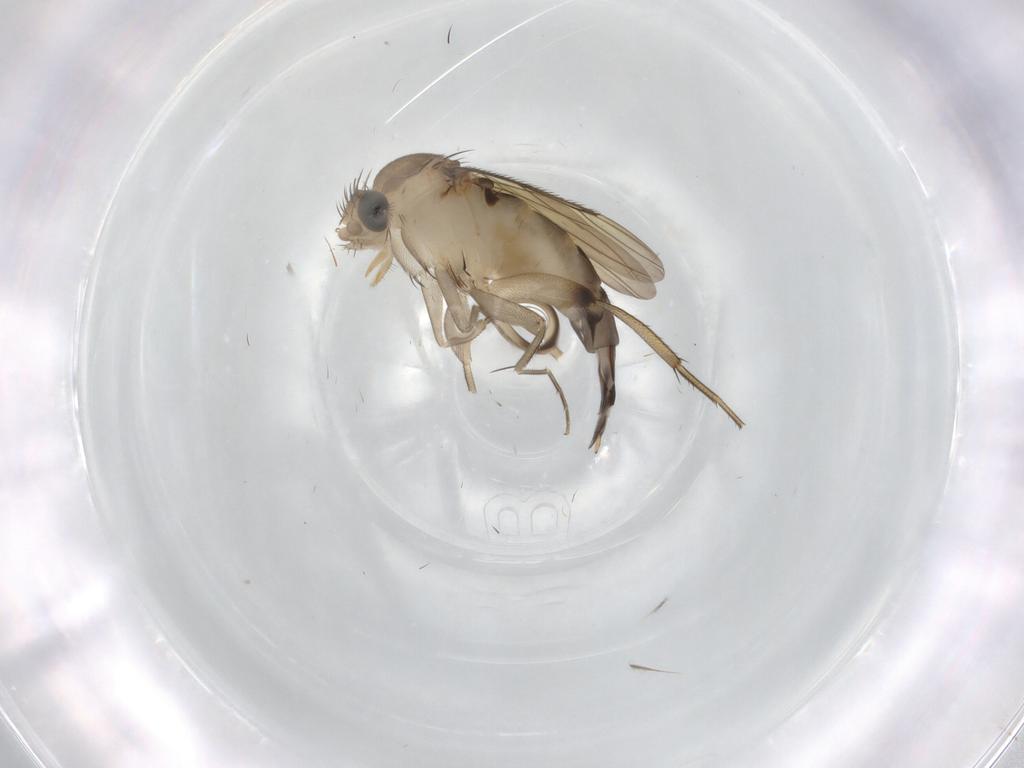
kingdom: Animalia
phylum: Arthropoda
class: Insecta
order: Diptera
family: Phoridae
